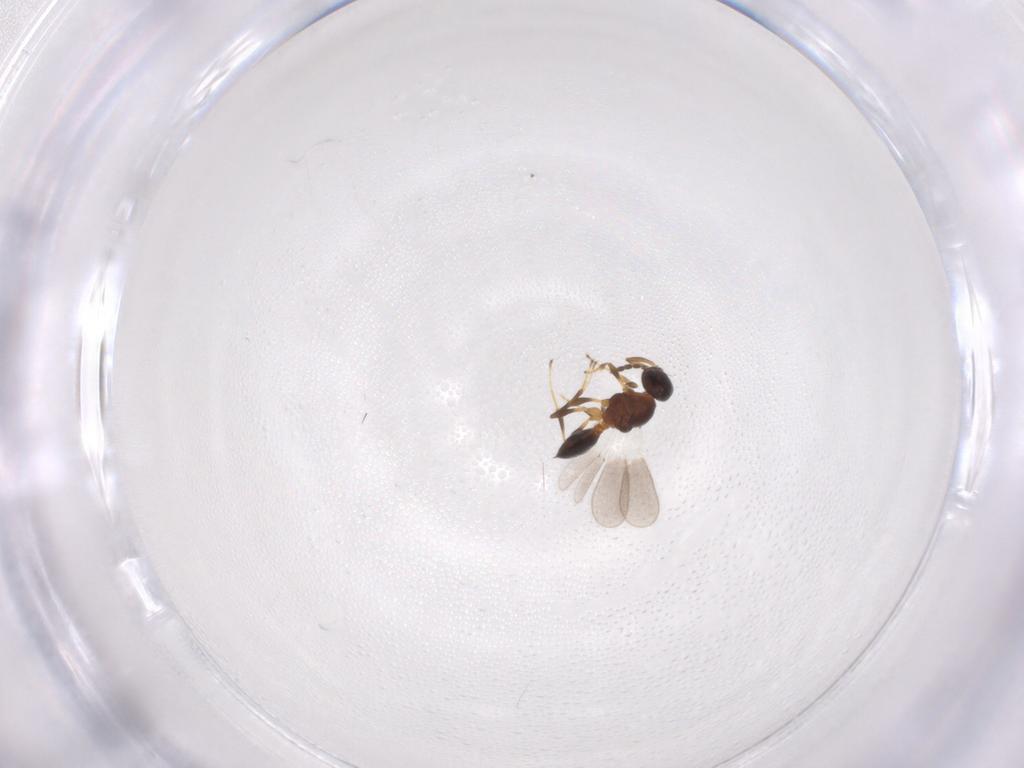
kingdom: Animalia
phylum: Arthropoda
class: Insecta
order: Hymenoptera
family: Platygastridae
